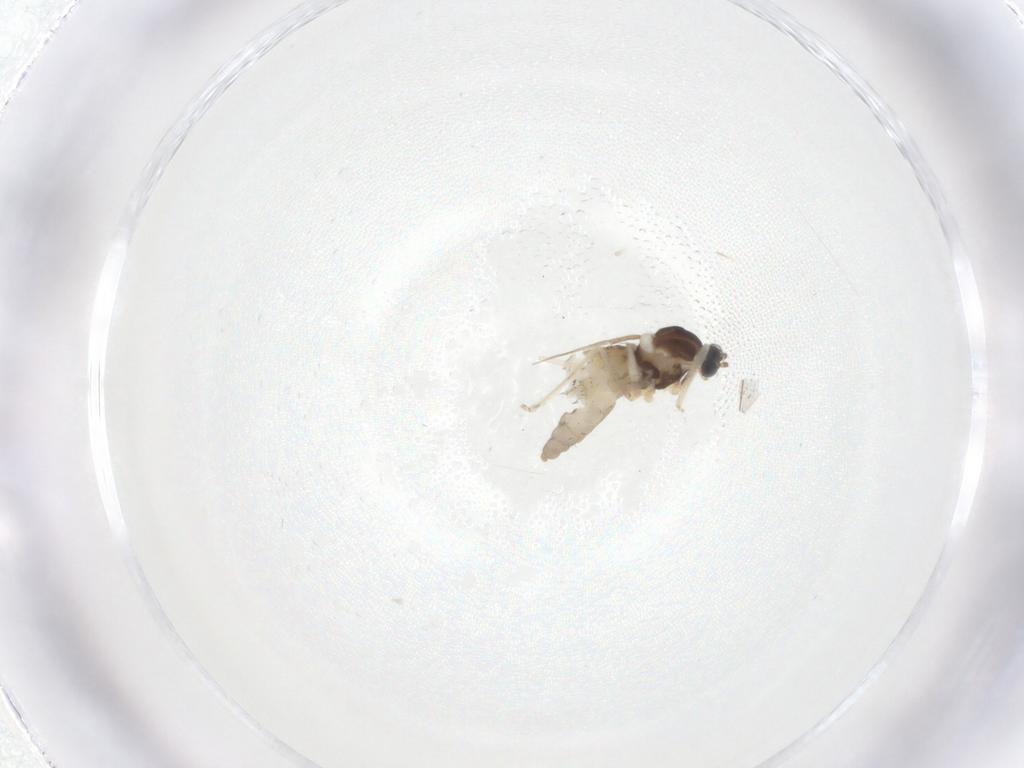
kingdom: Animalia
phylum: Arthropoda
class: Insecta
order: Diptera
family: Cecidomyiidae
